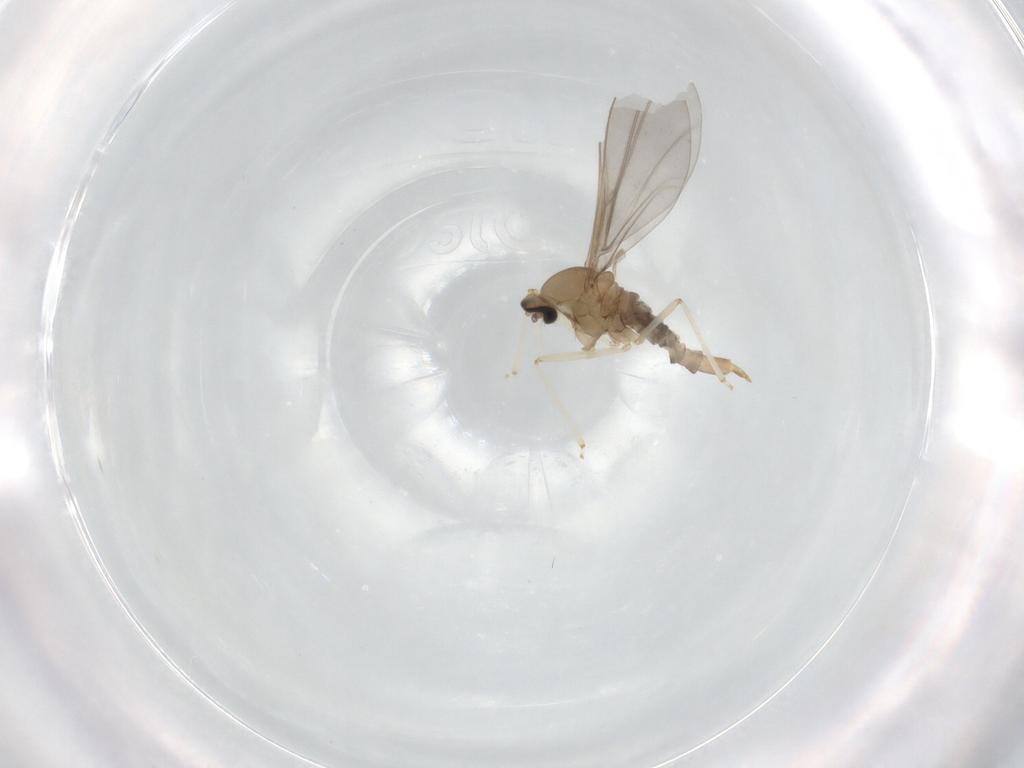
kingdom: Animalia
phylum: Arthropoda
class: Insecta
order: Diptera
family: Cecidomyiidae
